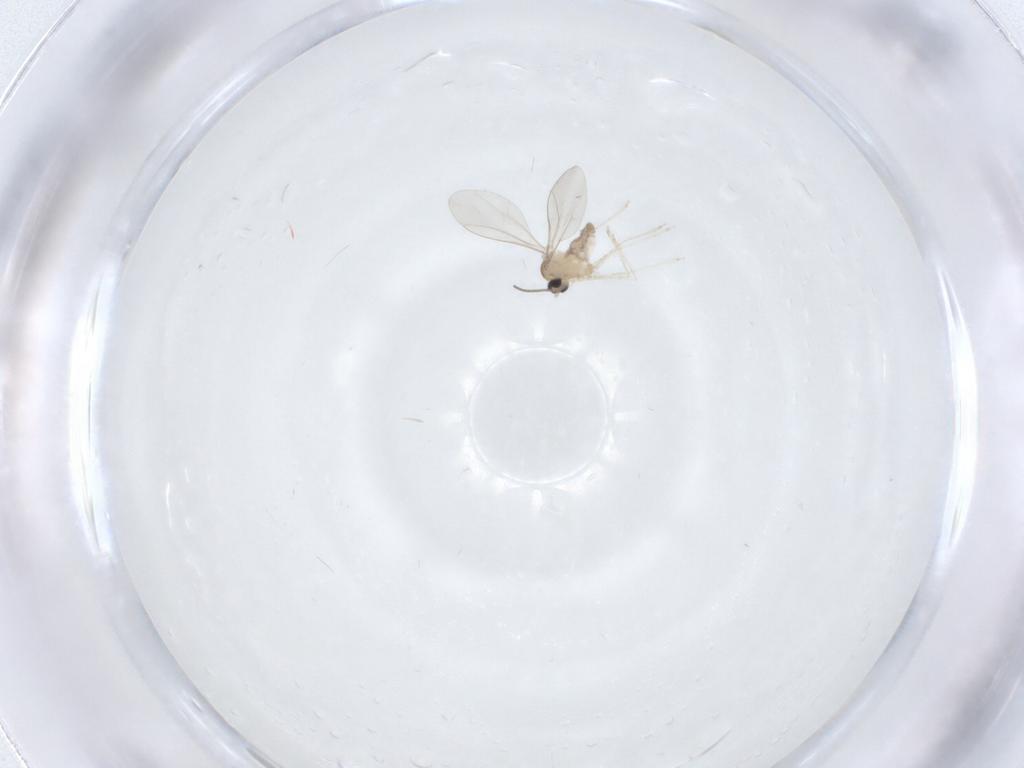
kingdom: Animalia
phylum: Arthropoda
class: Insecta
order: Diptera
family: Cecidomyiidae
